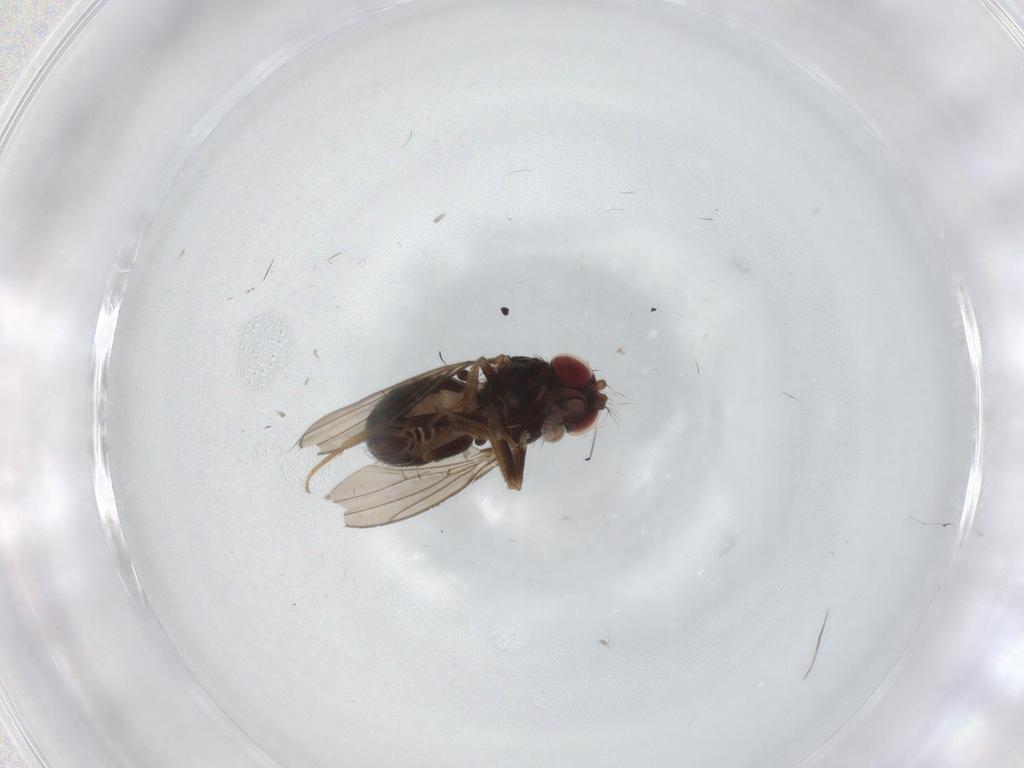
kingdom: Animalia
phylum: Arthropoda
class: Insecta
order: Diptera
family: Drosophilidae
